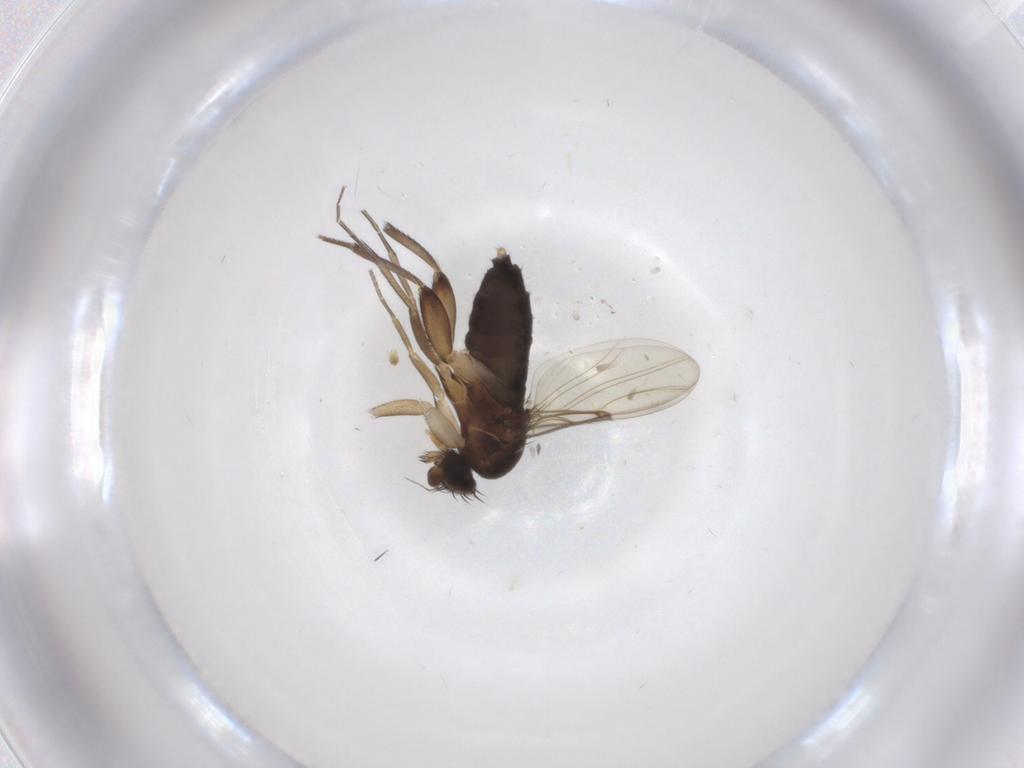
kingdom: Animalia
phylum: Arthropoda
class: Insecta
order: Diptera
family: Phoridae
